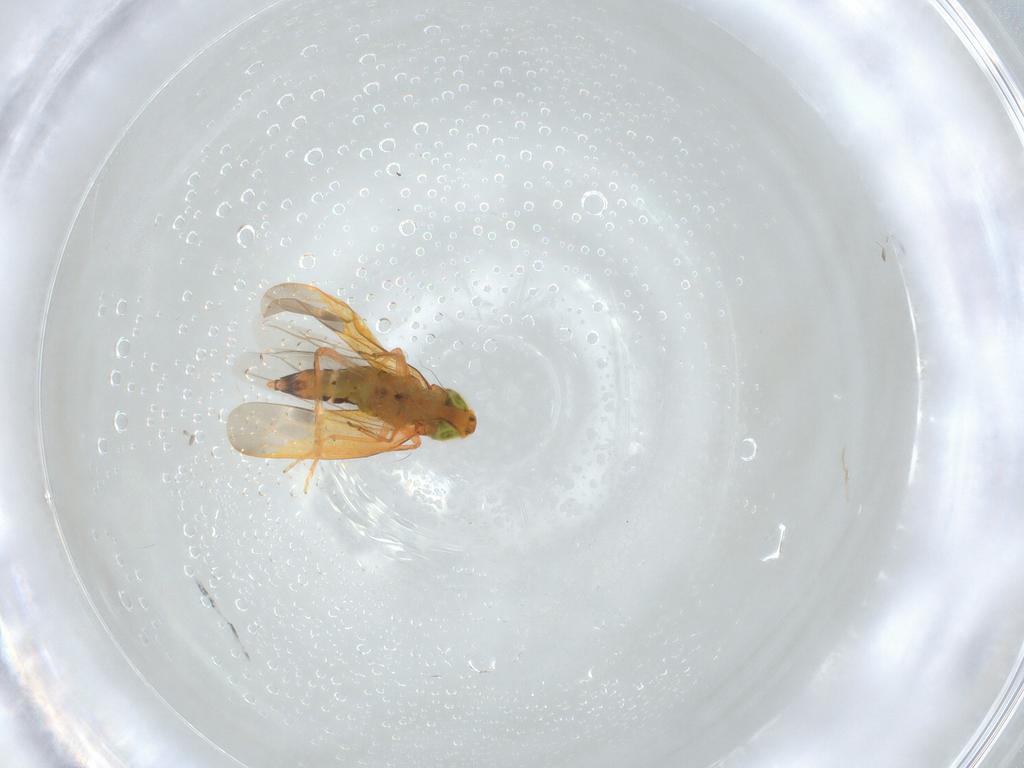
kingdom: Animalia
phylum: Arthropoda
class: Insecta
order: Hemiptera
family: Cicadellidae
